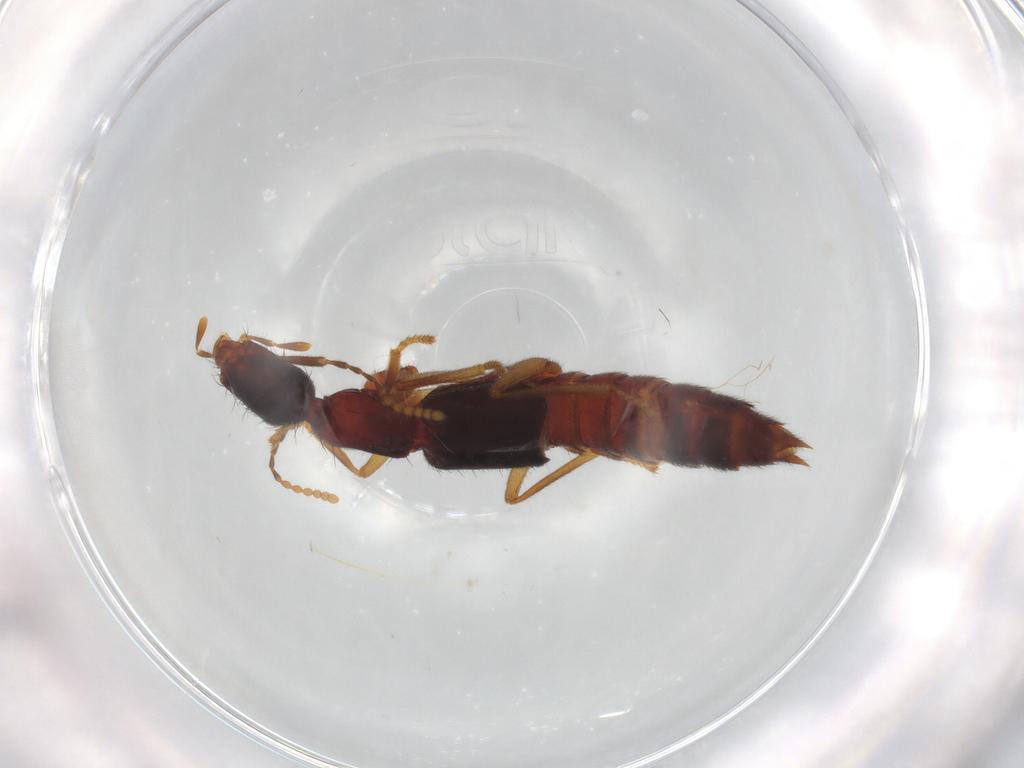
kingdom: Animalia
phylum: Arthropoda
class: Insecta
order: Coleoptera
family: Staphylinidae
